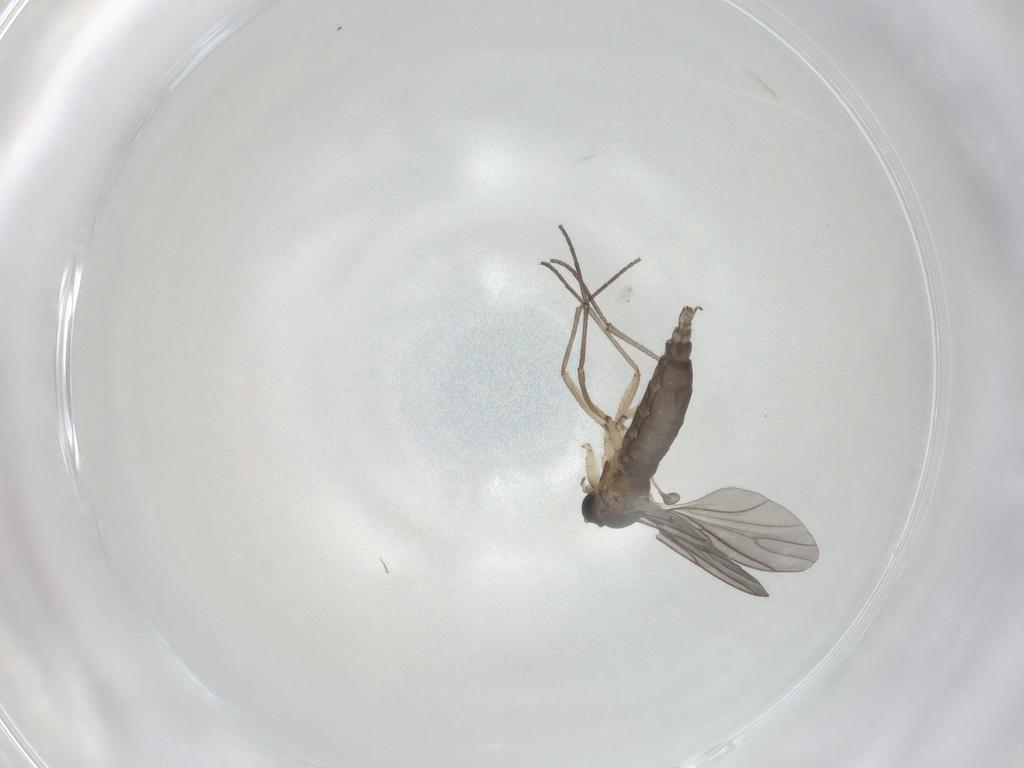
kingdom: Animalia
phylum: Arthropoda
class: Insecta
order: Diptera
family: Sciaridae
